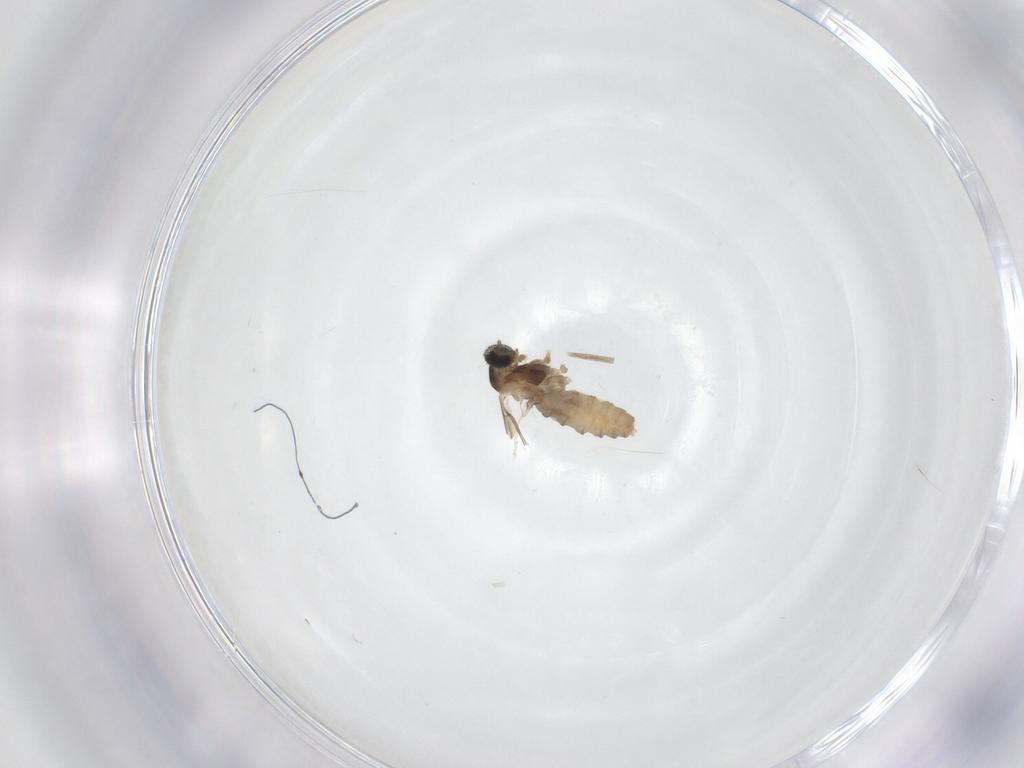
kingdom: Animalia
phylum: Arthropoda
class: Insecta
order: Diptera
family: Cecidomyiidae
